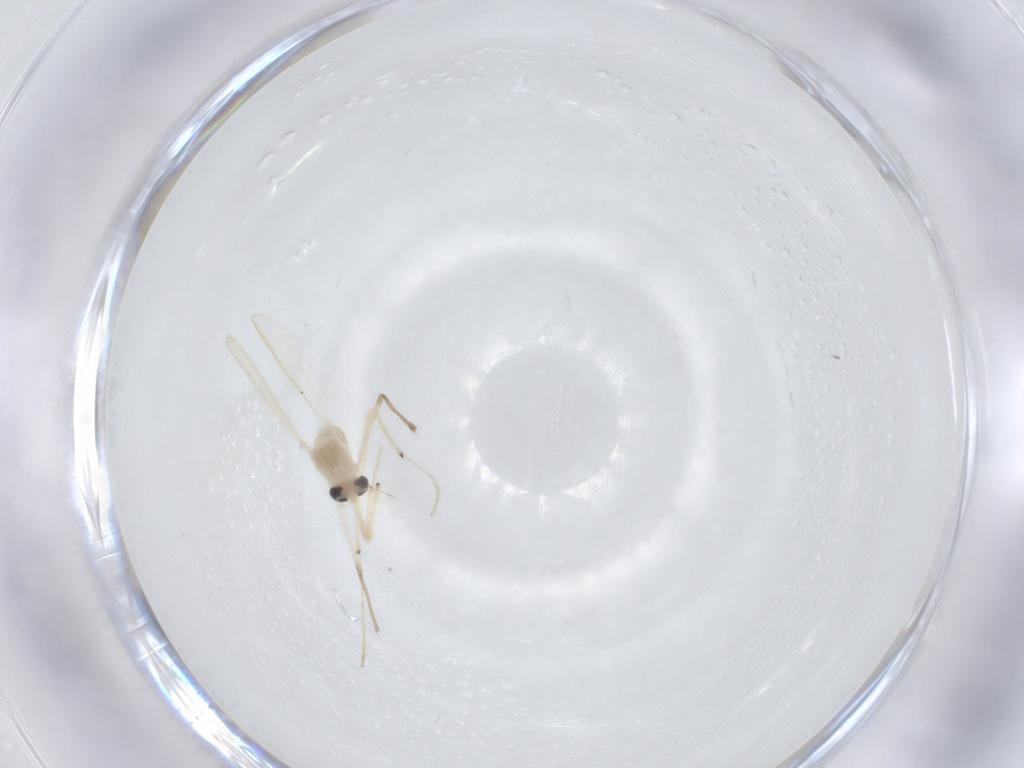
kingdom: Animalia
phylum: Arthropoda
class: Insecta
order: Diptera
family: Chironomidae
